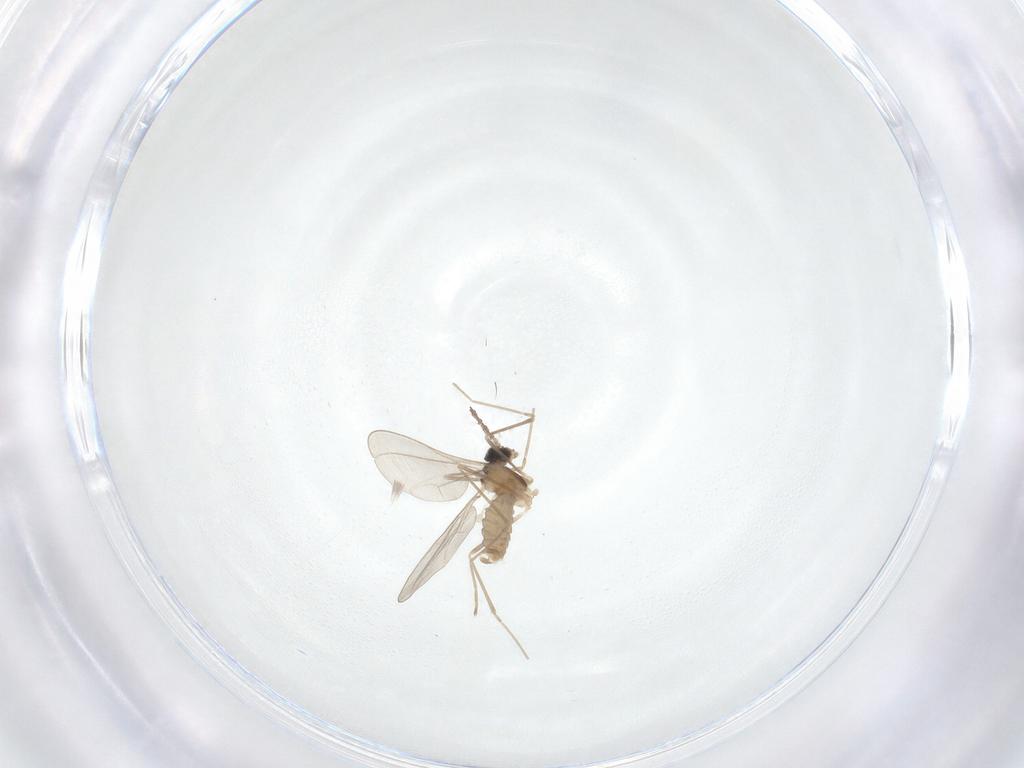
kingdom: Animalia
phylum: Arthropoda
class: Insecta
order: Diptera
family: Cecidomyiidae
